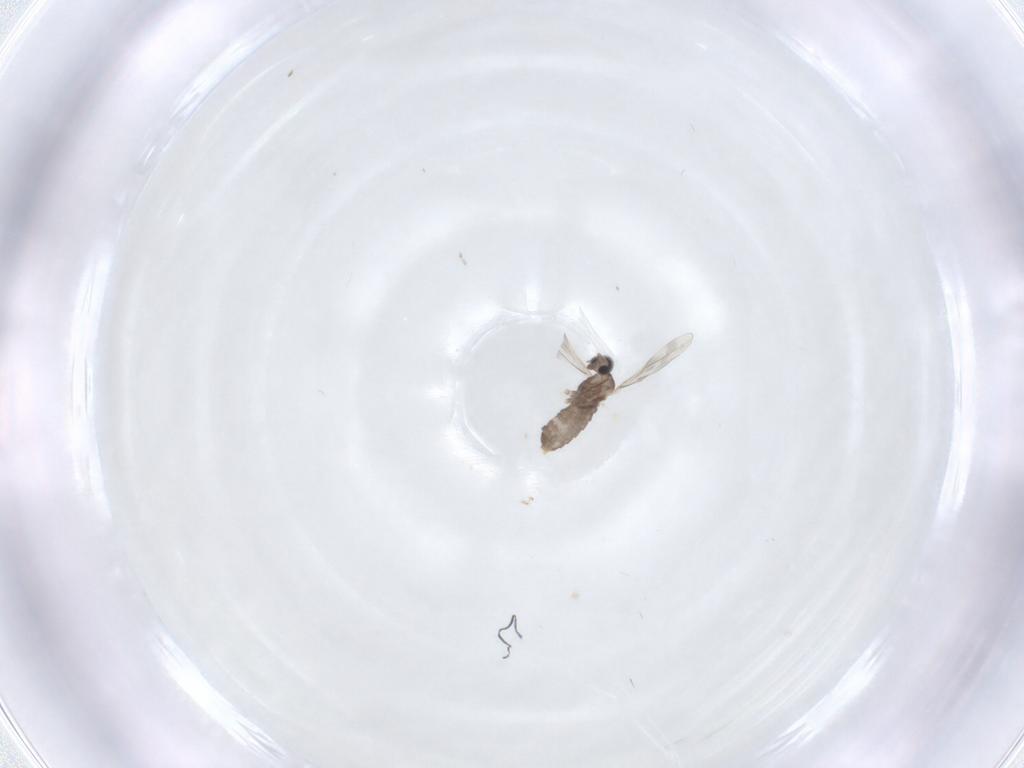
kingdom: Animalia
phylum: Arthropoda
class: Insecta
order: Diptera
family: Cecidomyiidae
